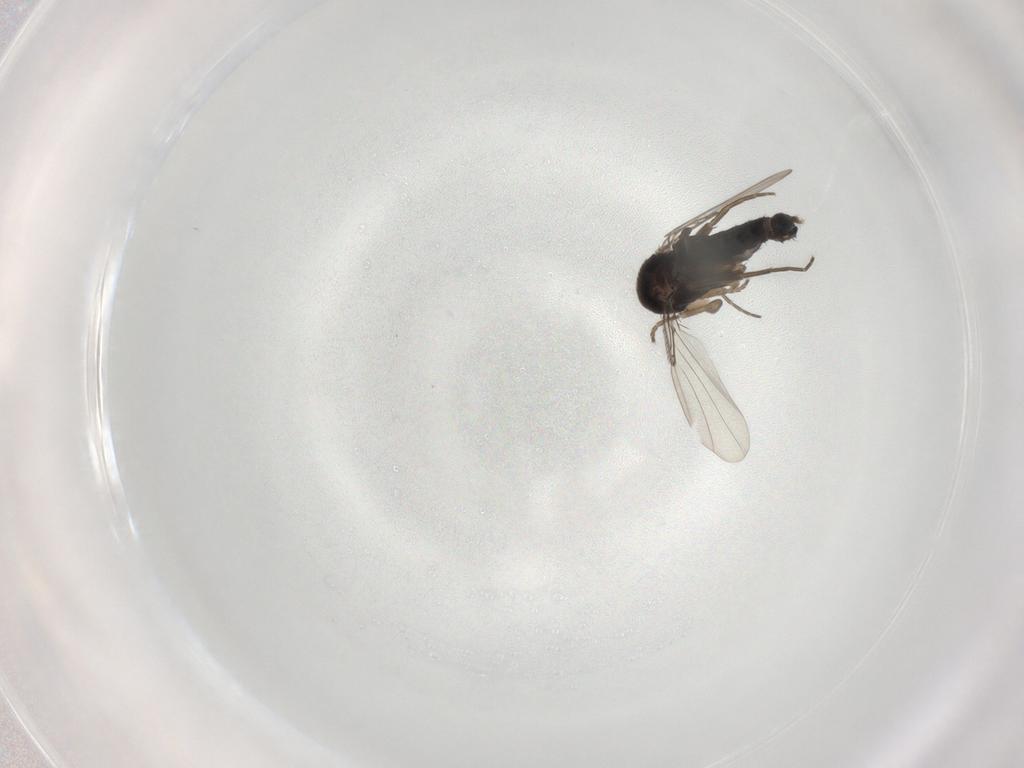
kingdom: Animalia
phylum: Arthropoda
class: Insecta
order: Diptera
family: Phoridae
